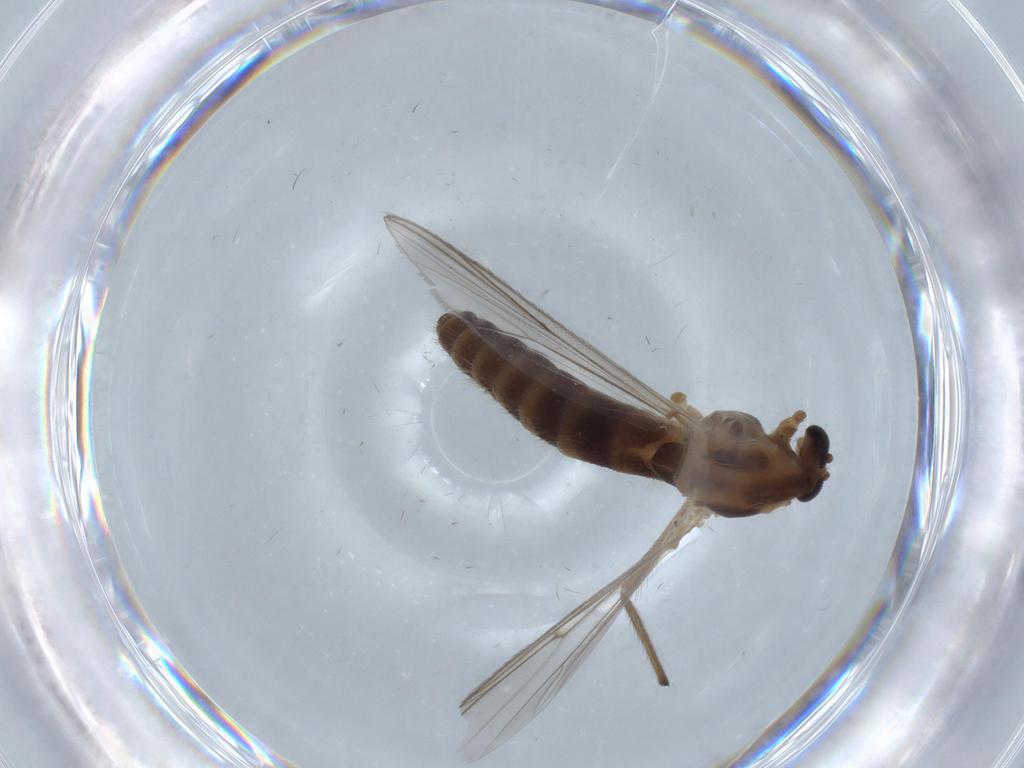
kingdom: Animalia
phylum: Arthropoda
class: Insecta
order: Diptera
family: Chironomidae
